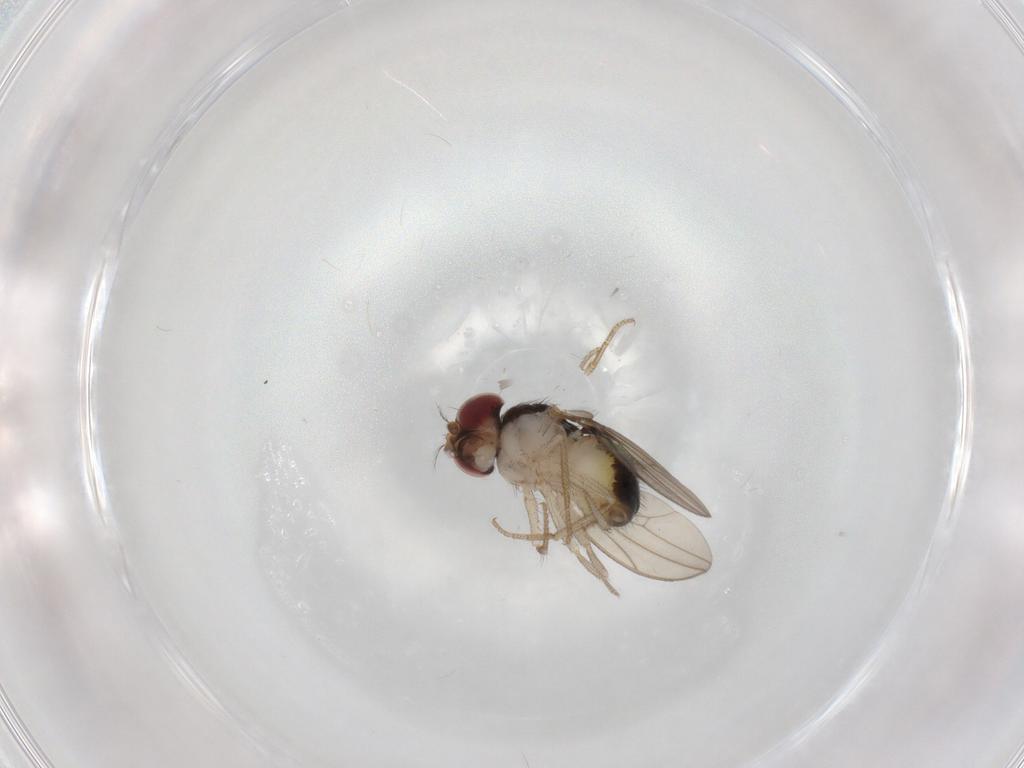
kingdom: Animalia
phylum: Arthropoda
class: Insecta
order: Diptera
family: Drosophilidae
